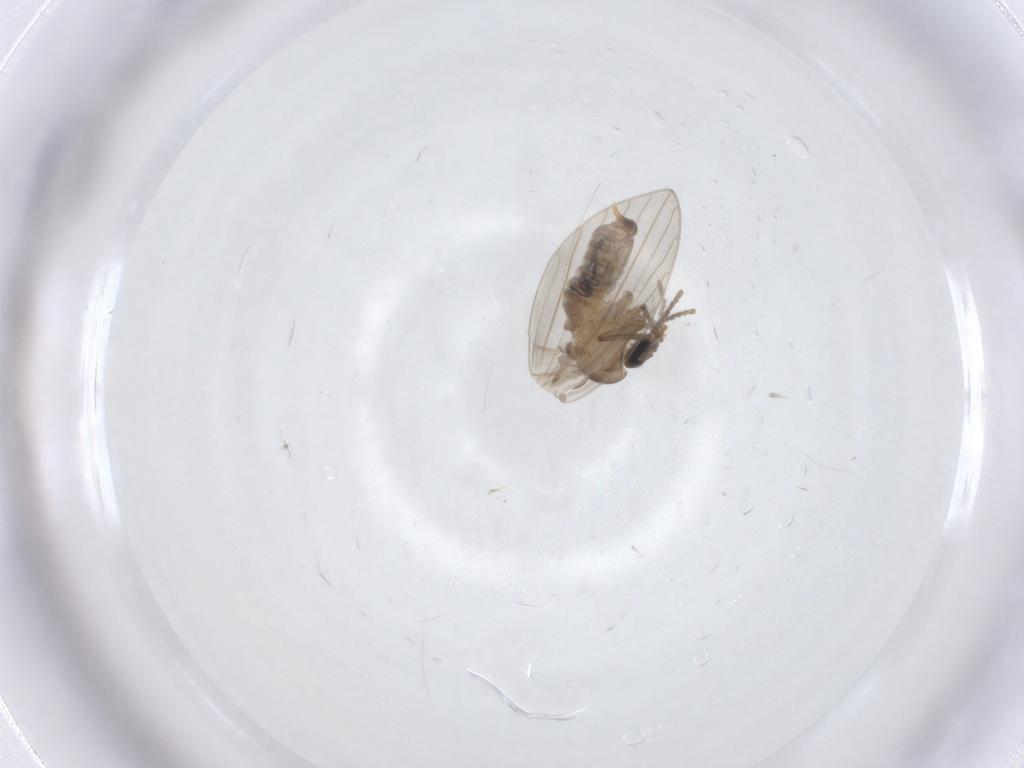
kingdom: Animalia
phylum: Arthropoda
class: Insecta
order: Diptera
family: Psychodidae
